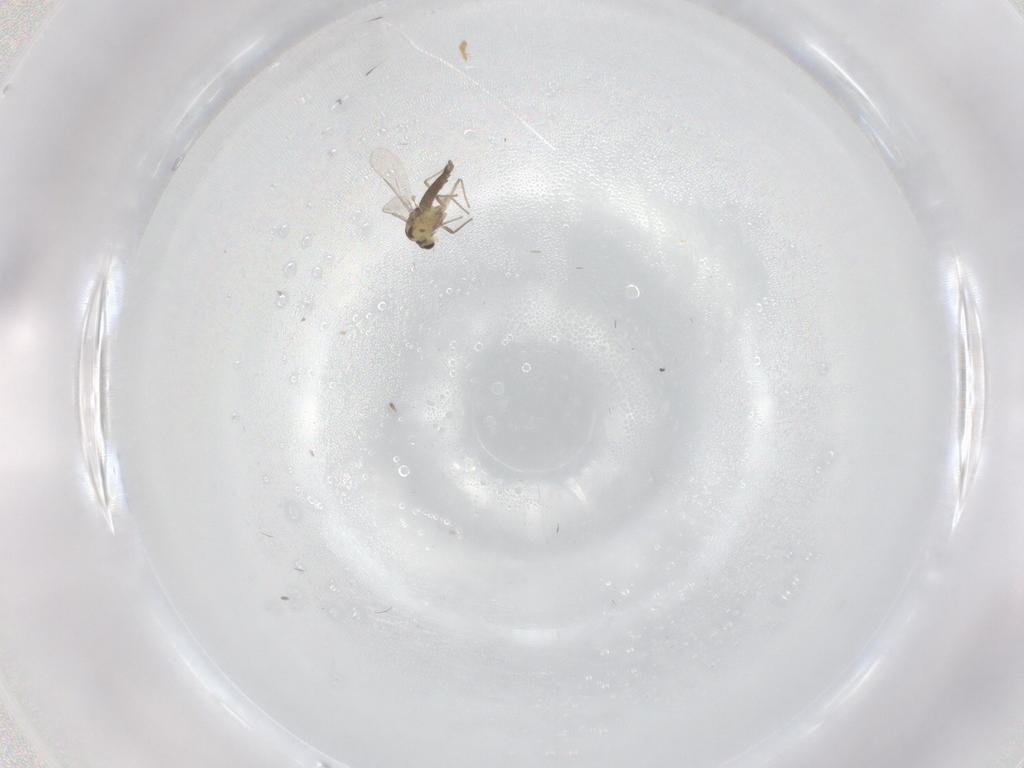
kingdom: Animalia
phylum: Arthropoda
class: Insecta
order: Diptera
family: Chironomidae
